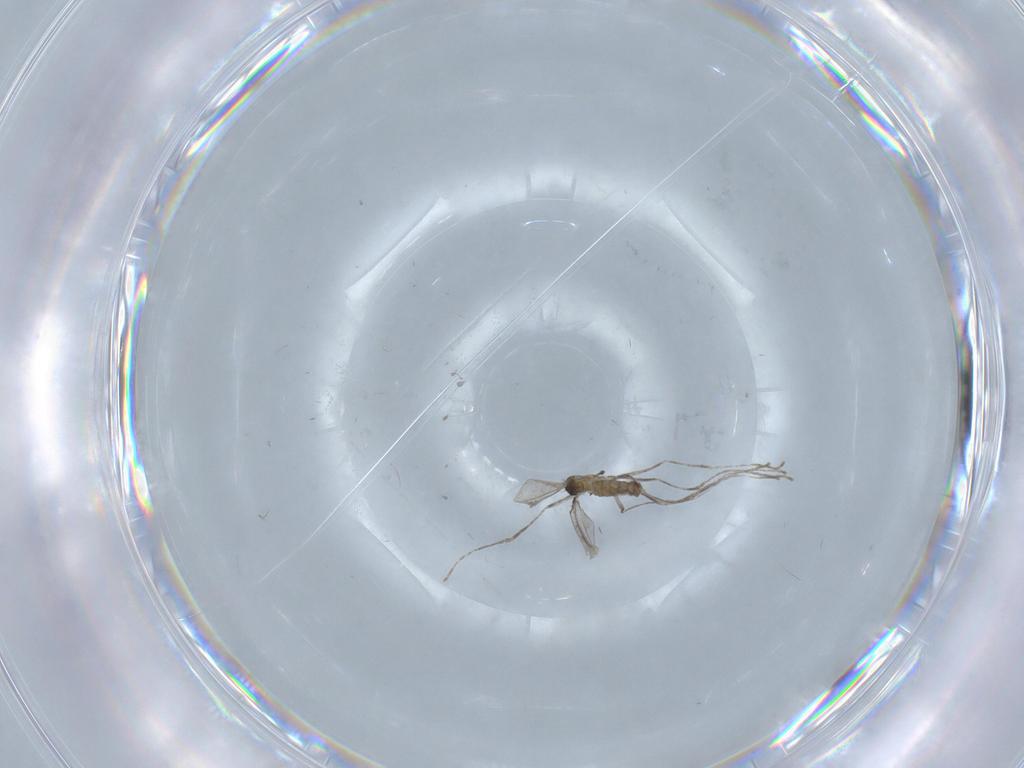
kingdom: Animalia
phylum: Arthropoda
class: Insecta
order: Diptera
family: Cecidomyiidae
